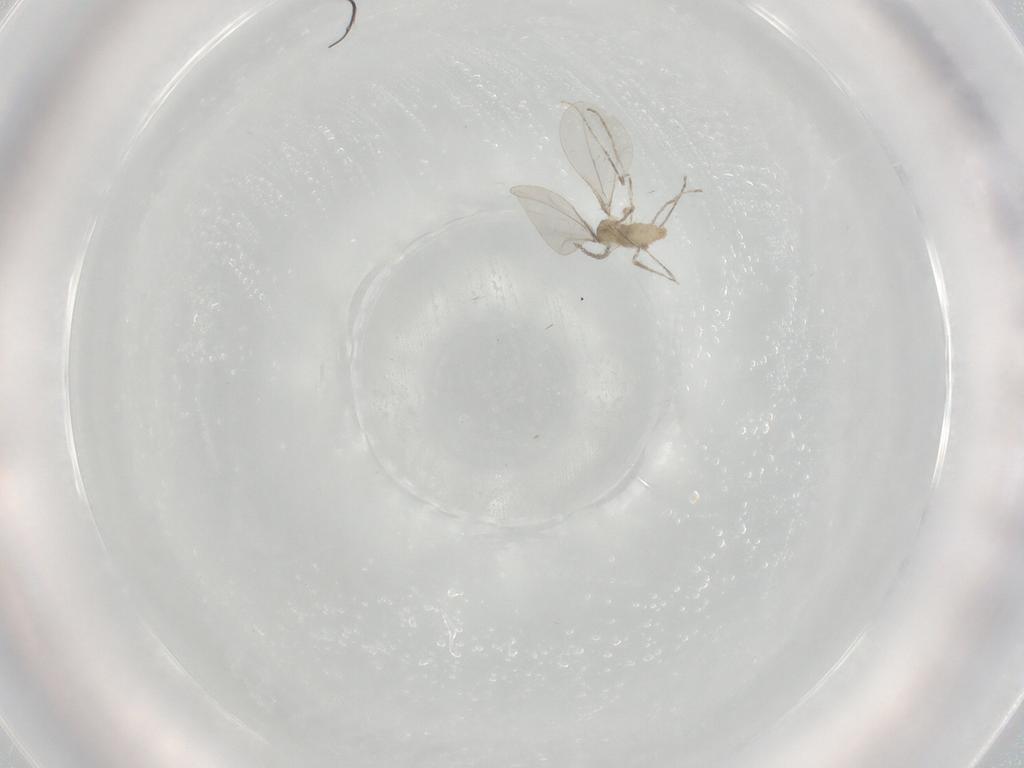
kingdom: Animalia
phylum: Arthropoda
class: Insecta
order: Diptera
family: Cecidomyiidae
